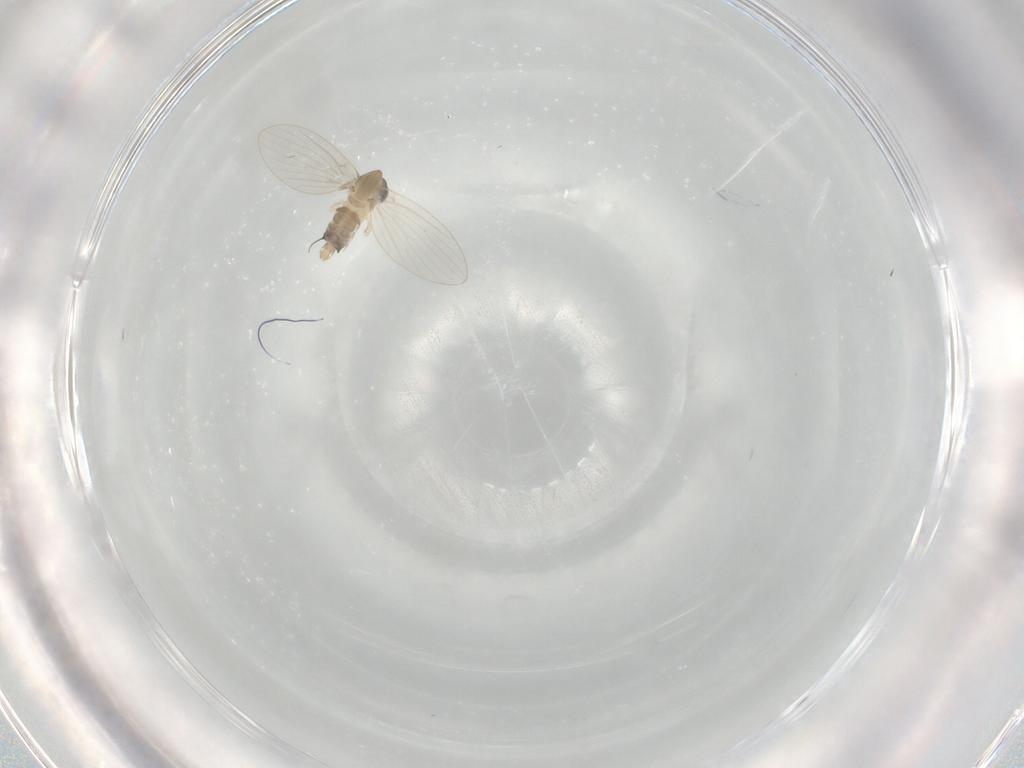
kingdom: Animalia
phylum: Arthropoda
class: Insecta
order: Diptera
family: Psychodidae
